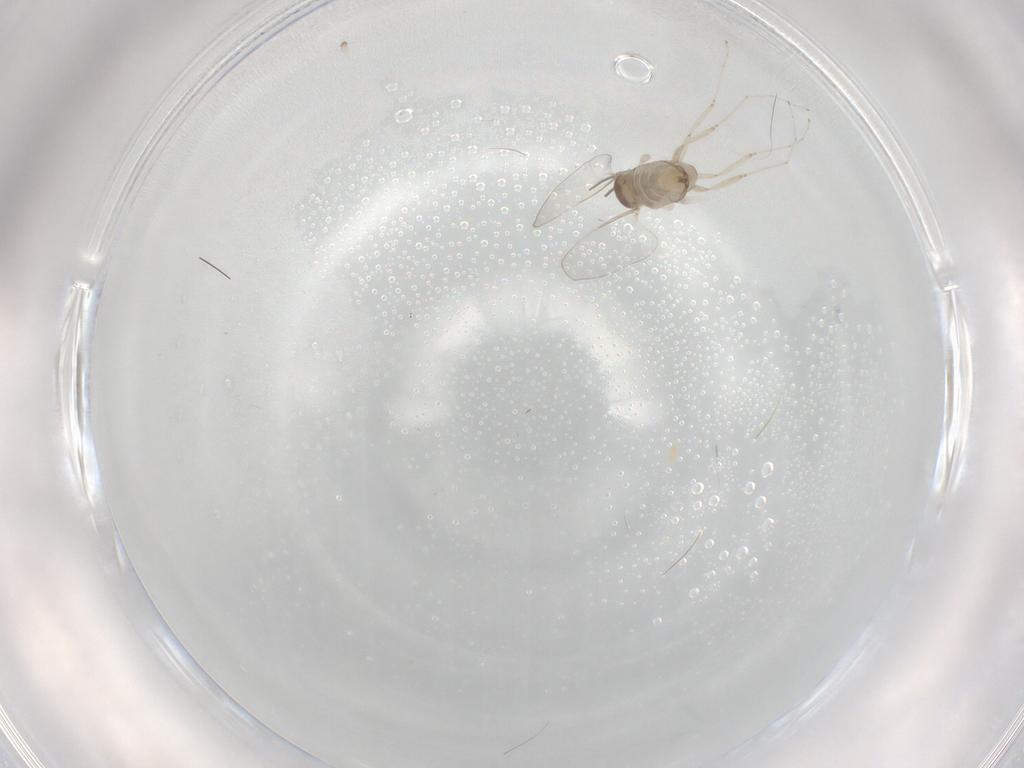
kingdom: Animalia
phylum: Arthropoda
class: Insecta
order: Diptera
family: Cecidomyiidae
